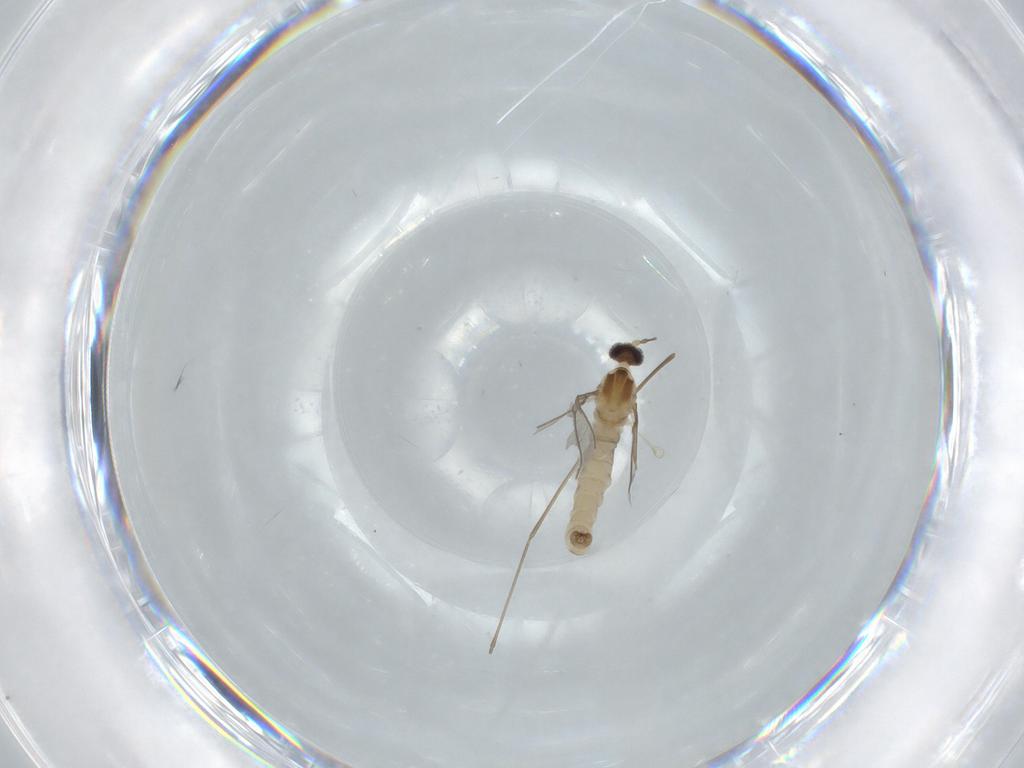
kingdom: Animalia
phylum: Arthropoda
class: Insecta
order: Diptera
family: Cecidomyiidae
